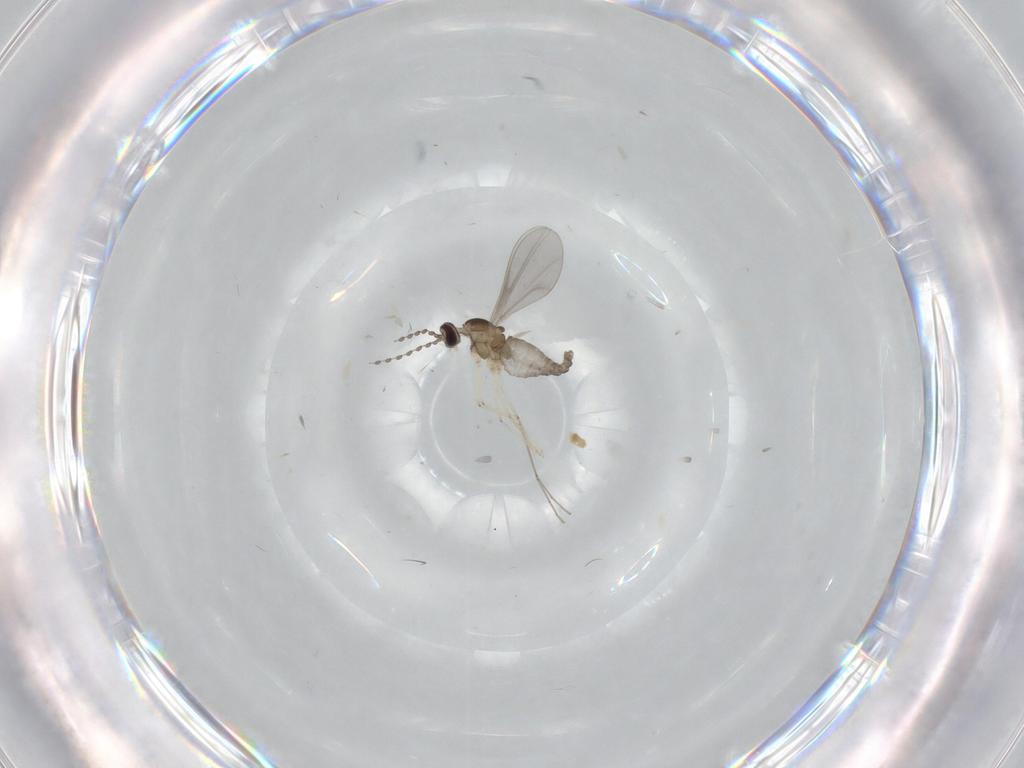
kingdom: Animalia
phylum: Arthropoda
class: Insecta
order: Diptera
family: Cecidomyiidae
